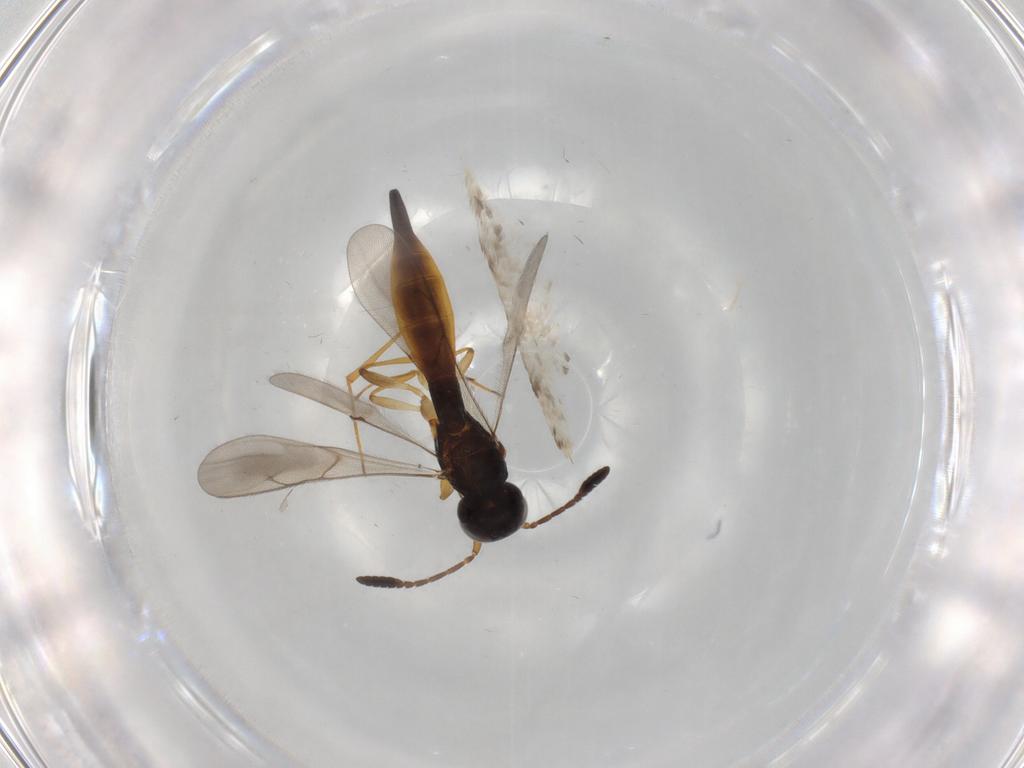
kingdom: Animalia
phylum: Arthropoda
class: Insecta
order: Hymenoptera
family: Scelionidae
